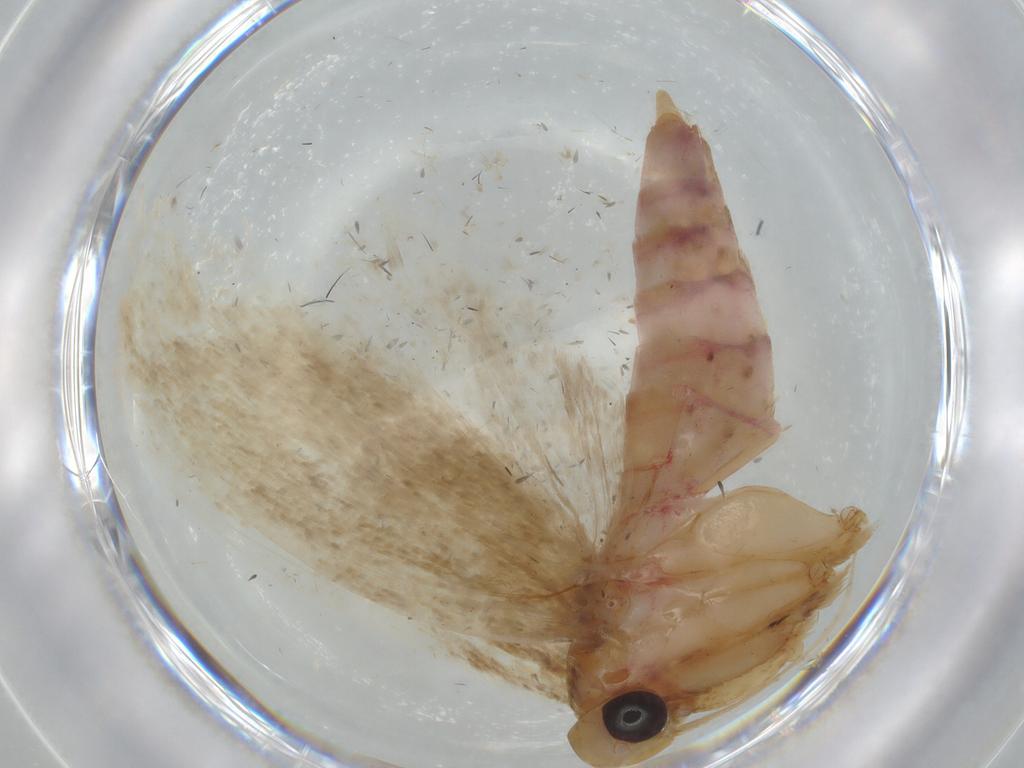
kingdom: Animalia
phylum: Arthropoda
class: Insecta
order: Lepidoptera
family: Autostichidae
